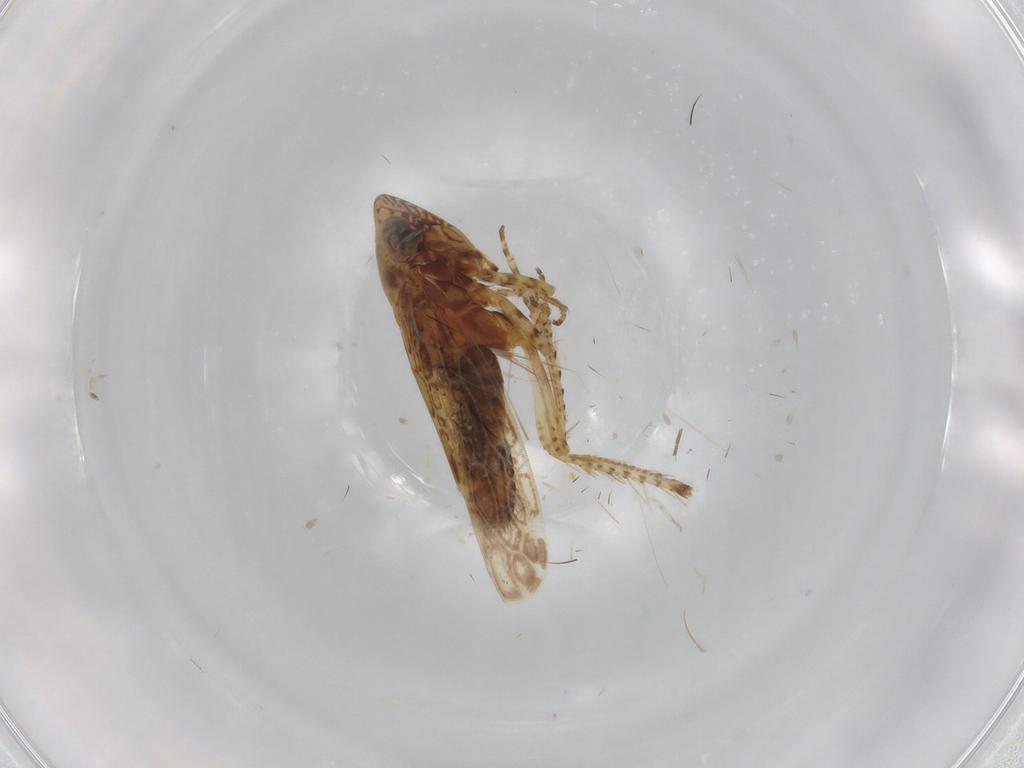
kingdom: Animalia
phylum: Arthropoda
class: Insecta
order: Hemiptera
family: Cicadellidae
